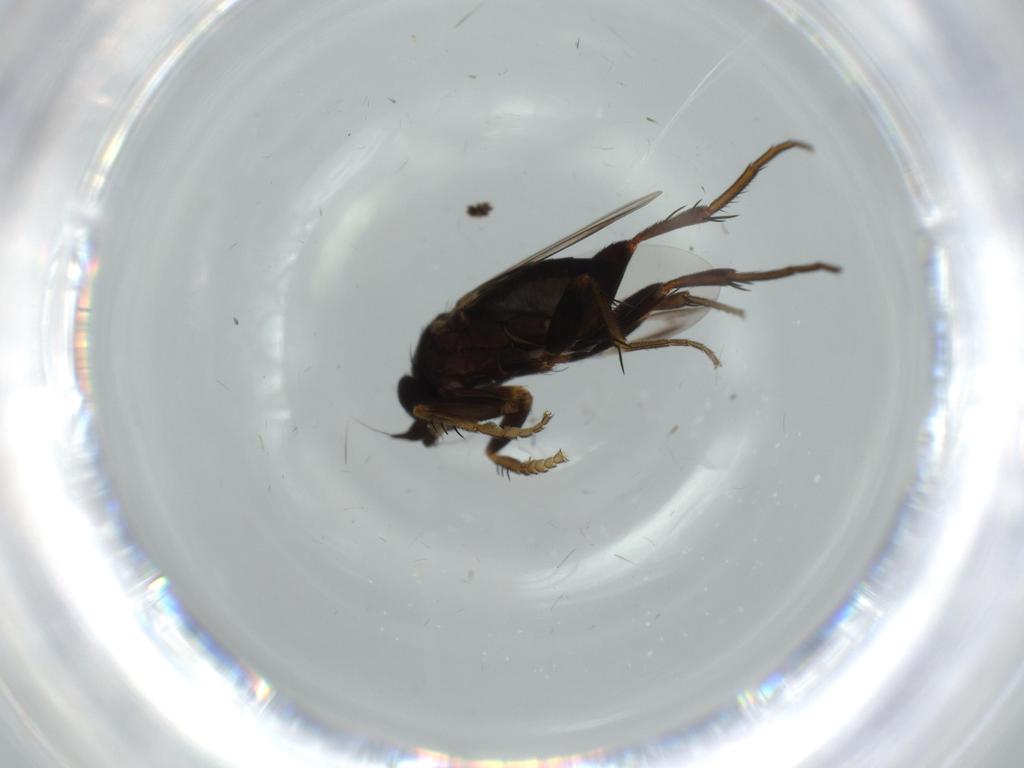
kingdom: Animalia
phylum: Arthropoda
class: Insecta
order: Diptera
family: Phoridae
